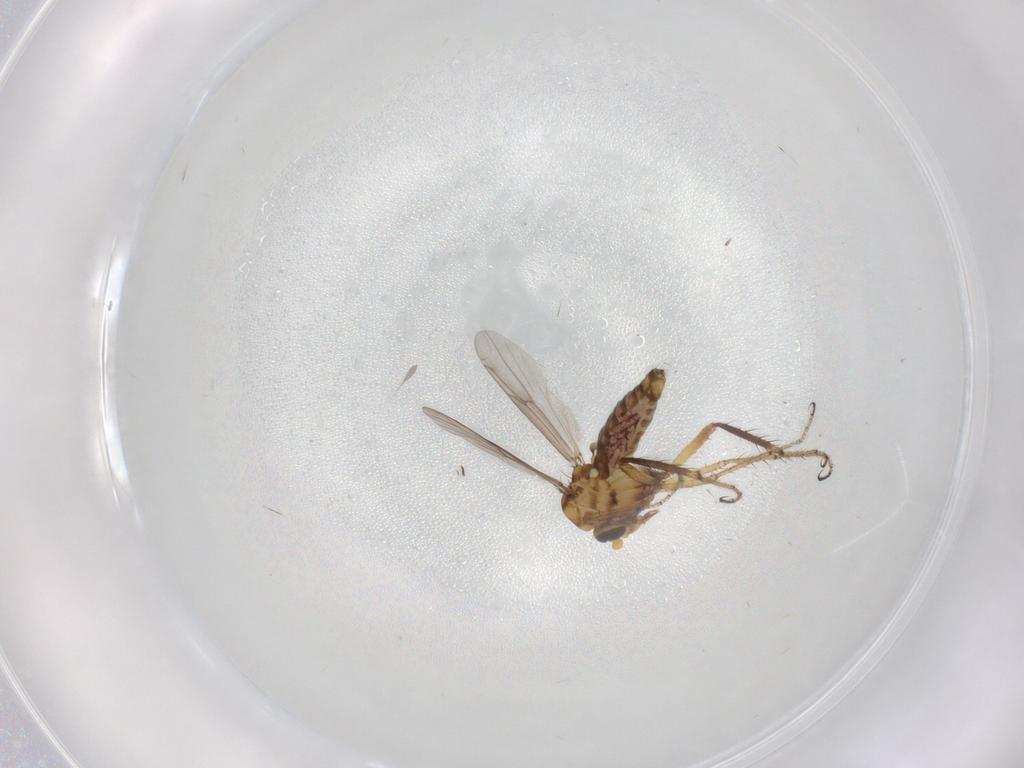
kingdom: Animalia
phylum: Arthropoda
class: Insecta
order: Diptera
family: Ceratopogonidae
